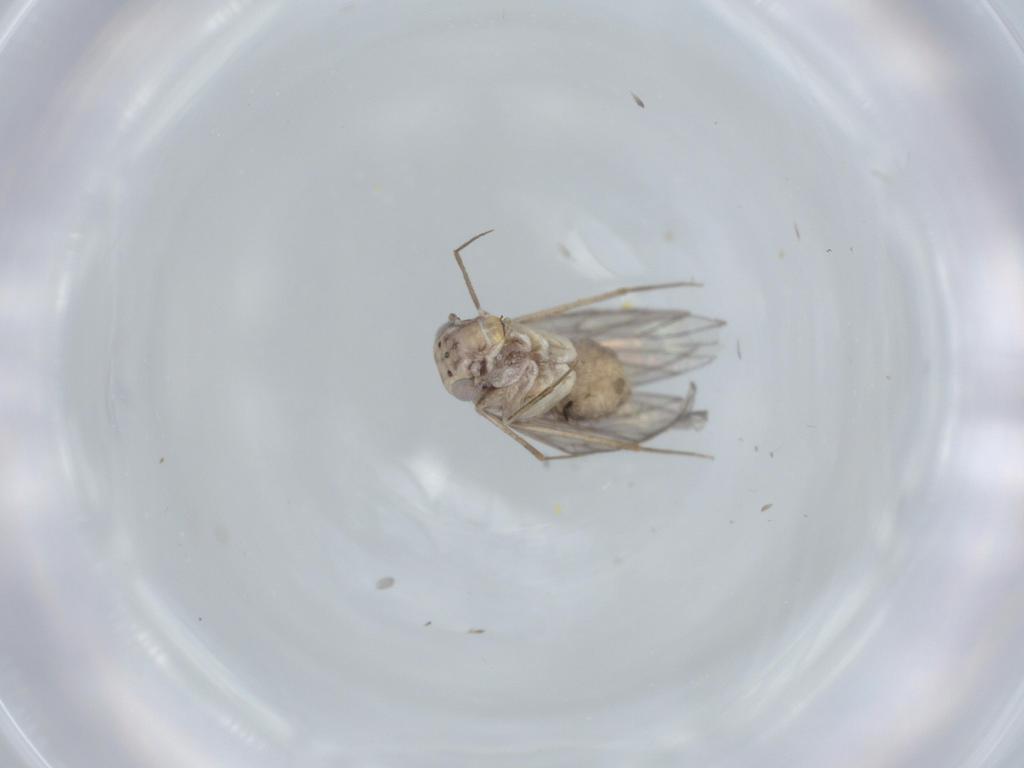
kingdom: Animalia
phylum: Arthropoda
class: Insecta
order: Psocodea
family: Lepidopsocidae
